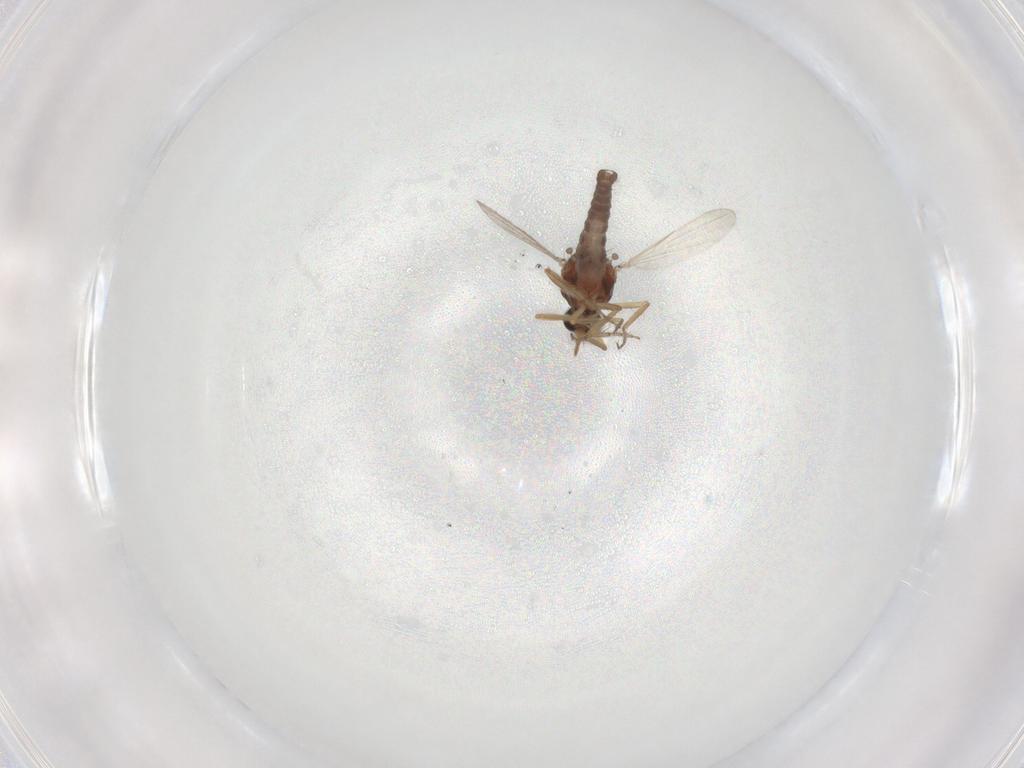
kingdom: Animalia
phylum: Arthropoda
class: Insecta
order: Diptera
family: Ceratopogonidae
